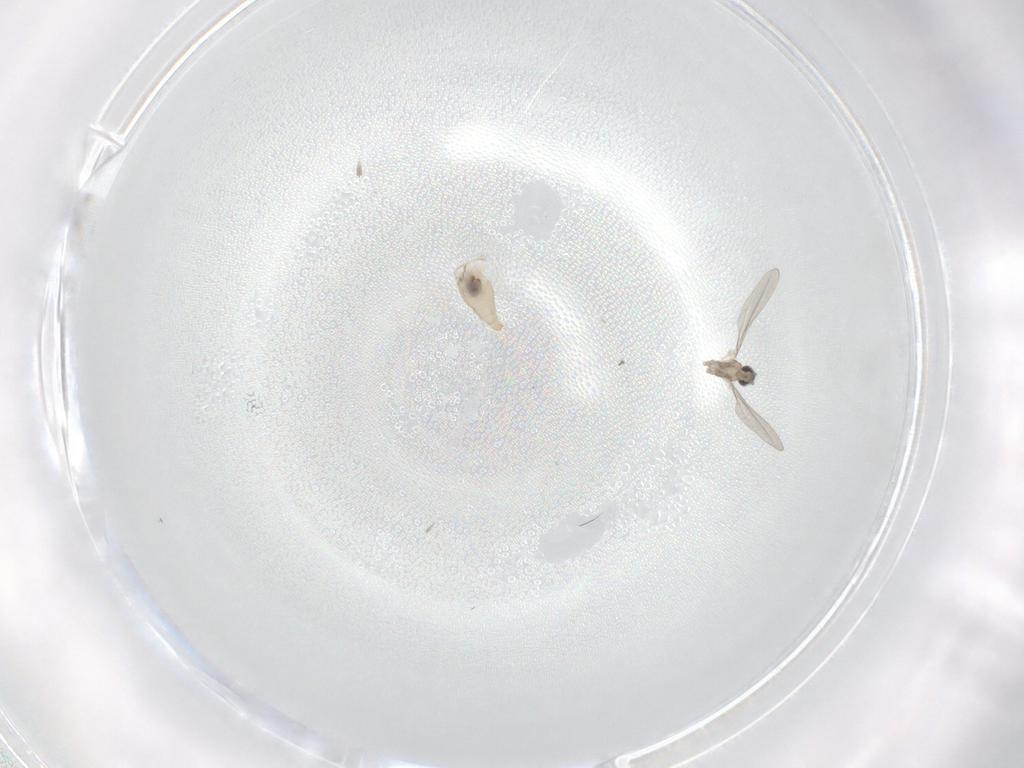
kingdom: Animalia
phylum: Arthropoda
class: Insecta
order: Diptera
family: Cecidomyiidae
